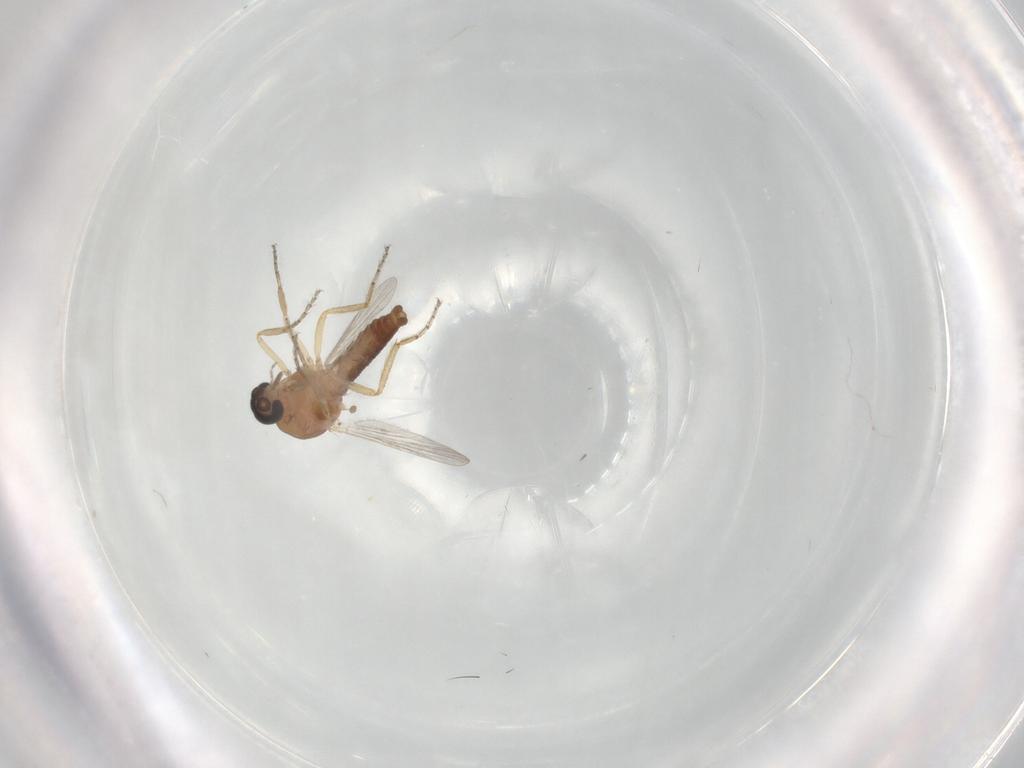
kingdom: Animalia
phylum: Arthropoda
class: Insecta
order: Diptera
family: Ceratopogonidae
